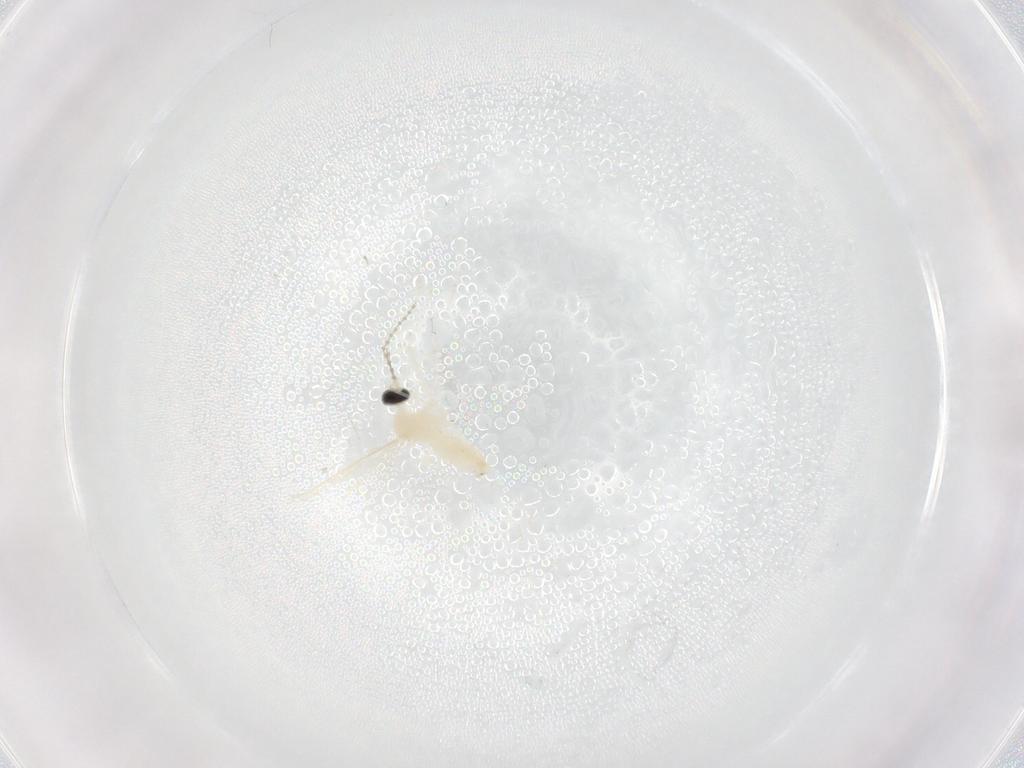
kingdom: Animalia
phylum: Arthropoda
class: Insecta
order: Diptera
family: Cecidomyiidae
